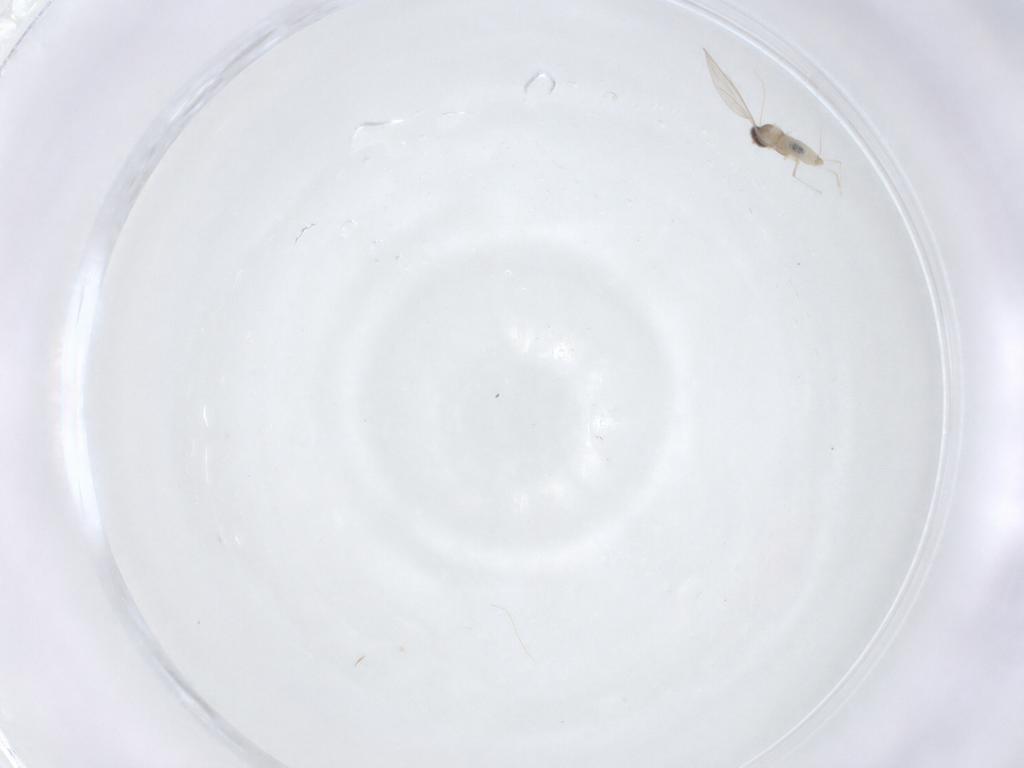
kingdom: Animalia
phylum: Arthropoda
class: Insecta
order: Diptera
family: Cecidomyiidae
